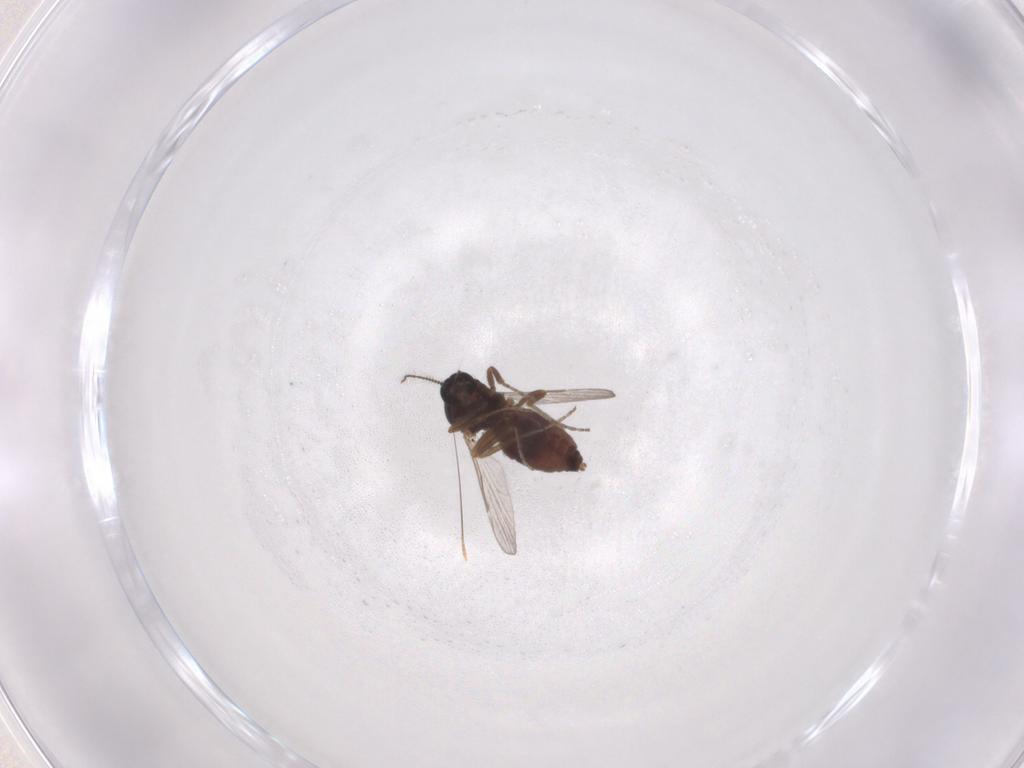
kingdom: Animalia
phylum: Arthropoda
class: Insecta
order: Diptera
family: Ceratopogonidae
